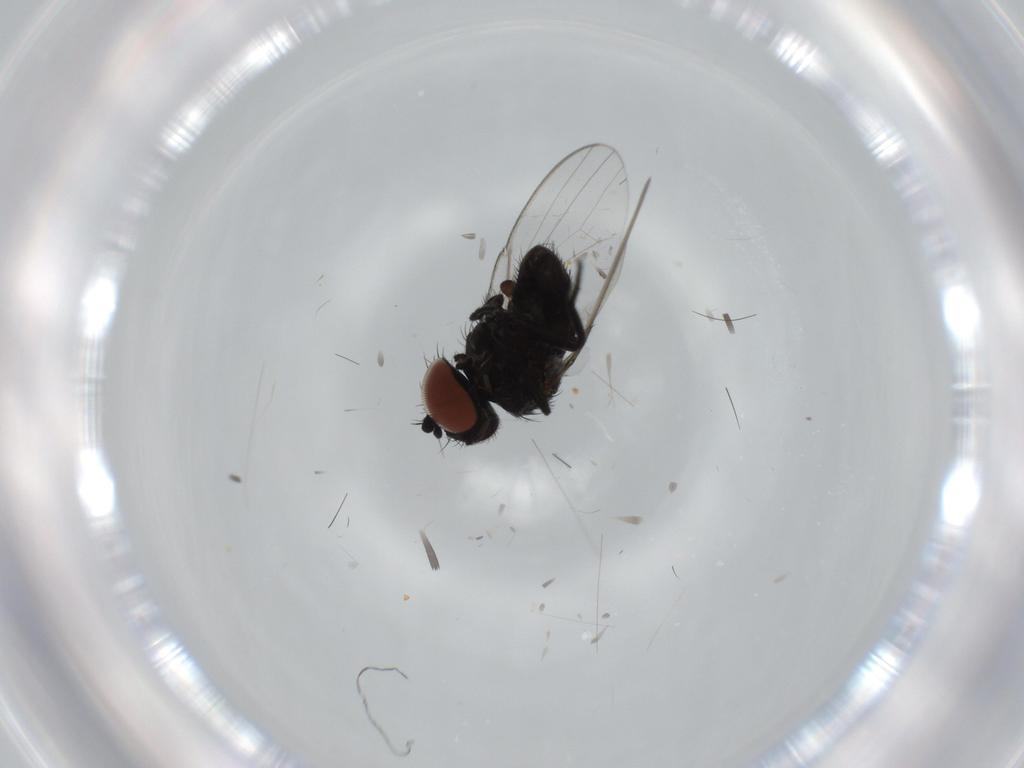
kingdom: Animalia
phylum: Arthropoda
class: Insecta
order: Diptera
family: Milichiidae
